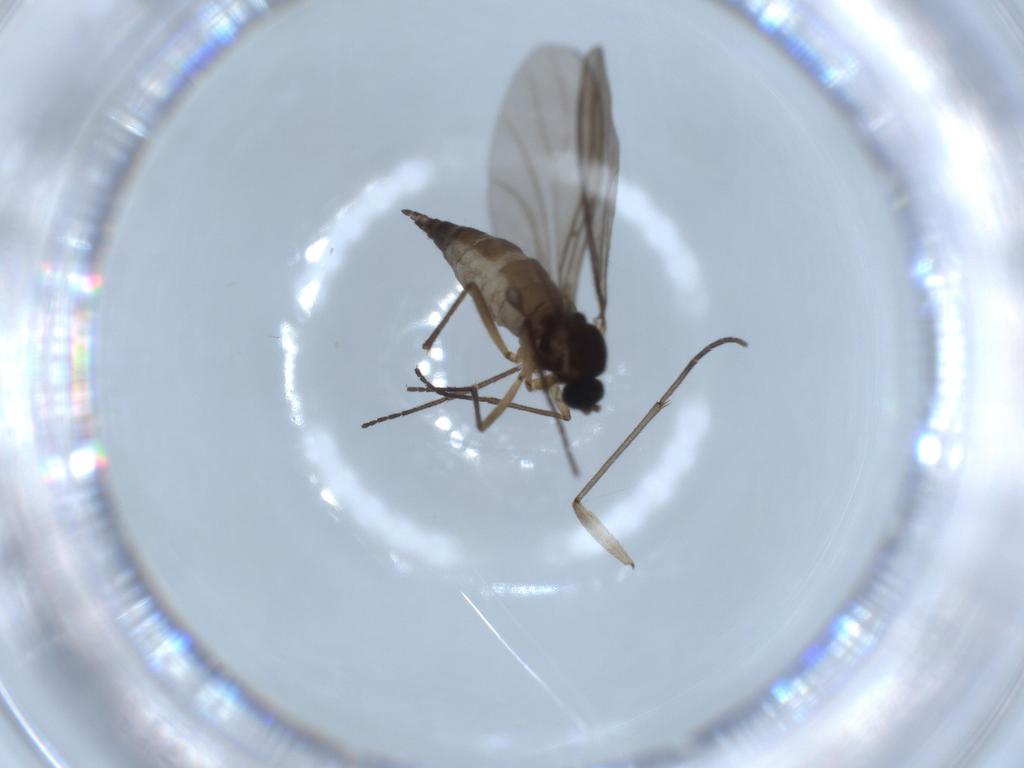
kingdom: Animalia
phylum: Arthropoda
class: Insecta
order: Diptera
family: Sciaridae
